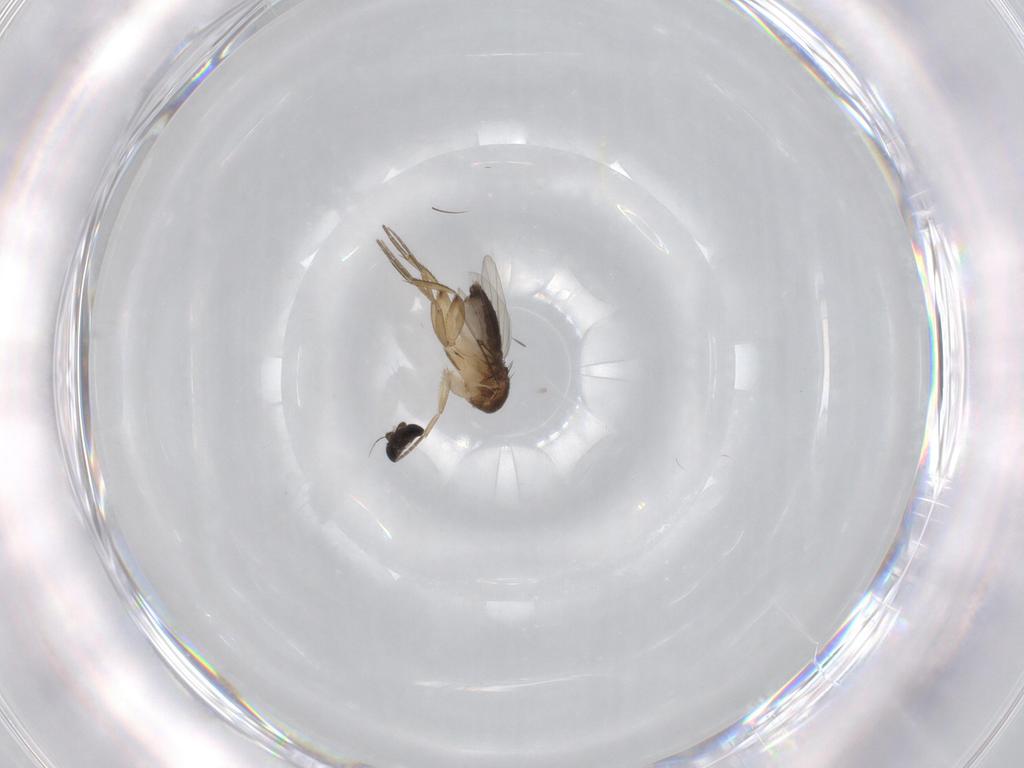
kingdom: Animalia
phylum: Arthropoda
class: Insecta
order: Diptera
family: Phoridae
